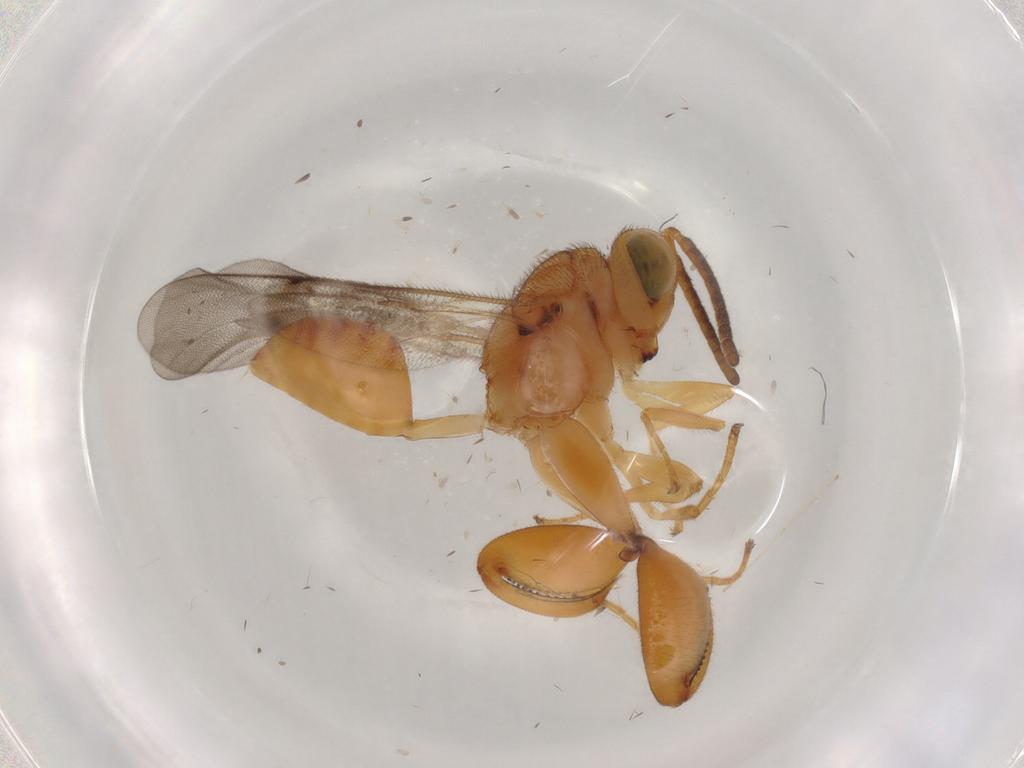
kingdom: Animalia
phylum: Arthropoda
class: Insecta
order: Hymenoptera
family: Chalcididae
